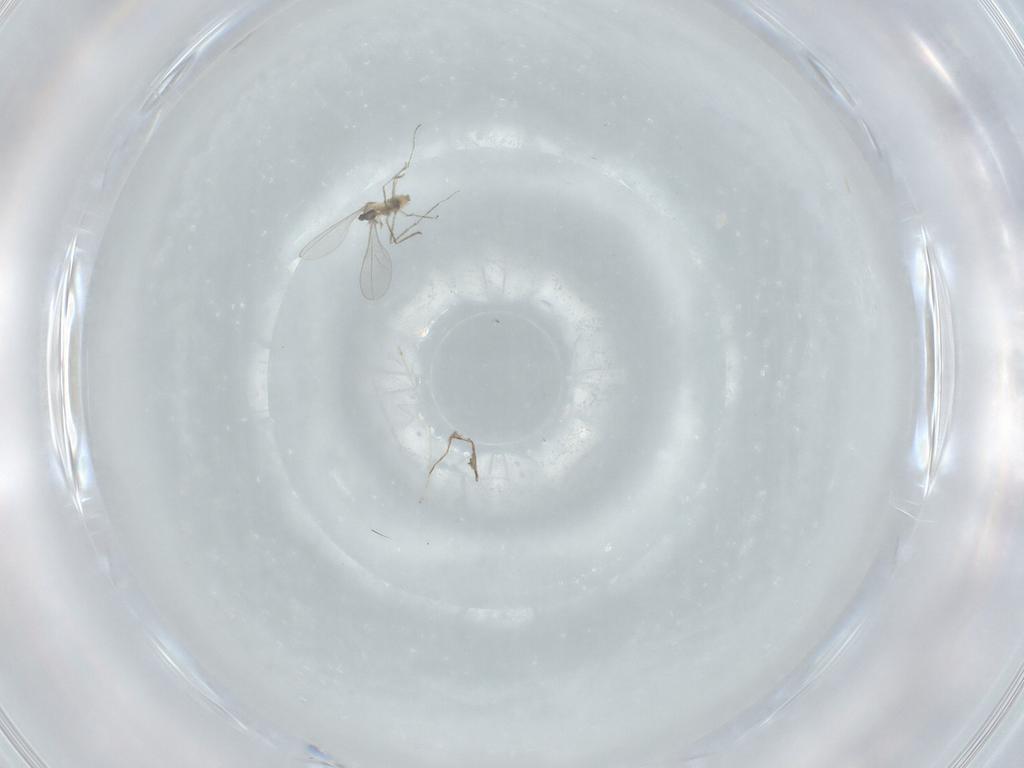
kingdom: Animalia
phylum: Arthropoda
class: Insecta
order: Diptera
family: Cecidomyiidae
